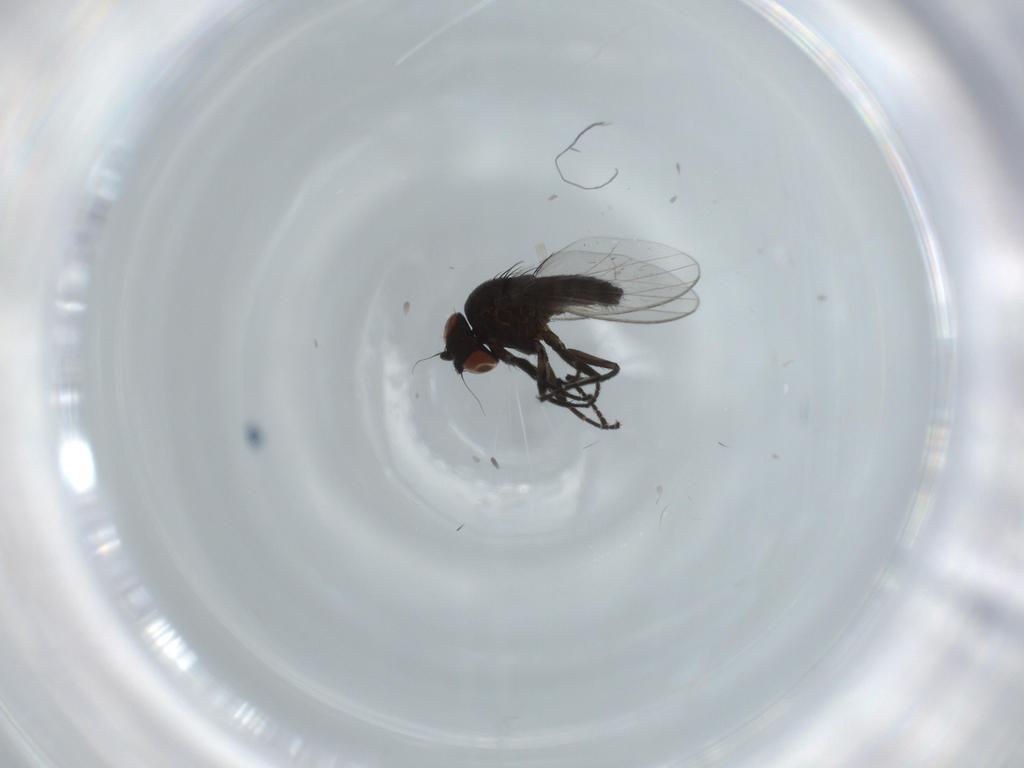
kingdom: Animalia
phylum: Arthropoda
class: Insecta
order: Diptera
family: Milichiidae
